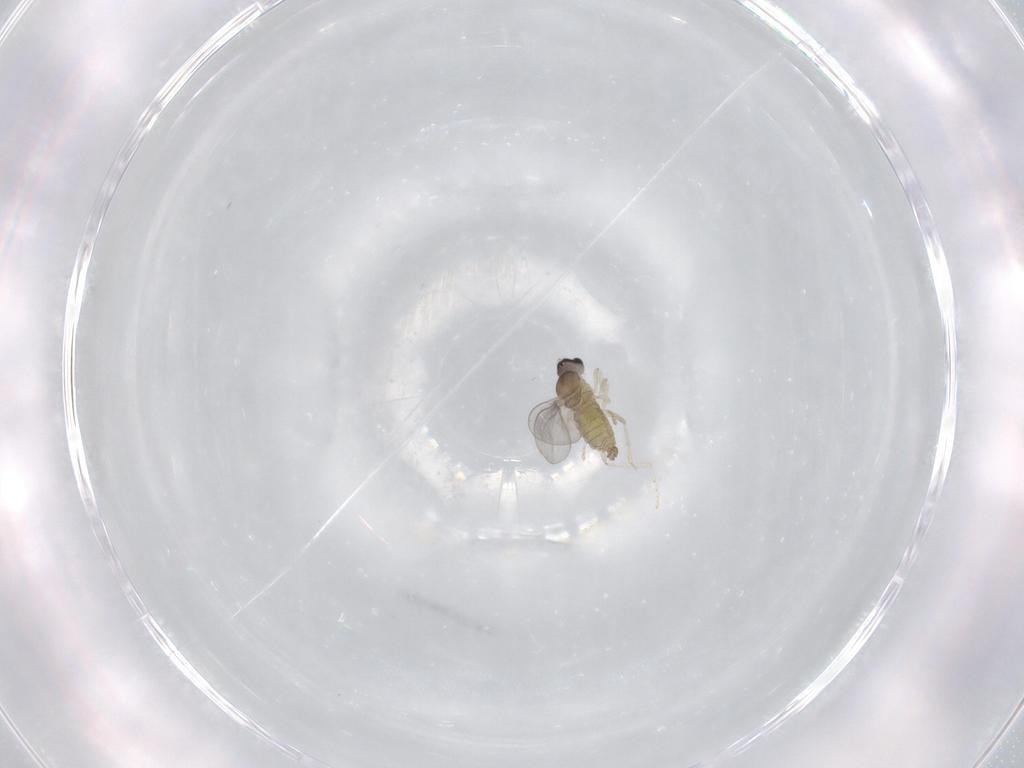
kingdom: Animalia
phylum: Arthropoda
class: Insecta
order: Diptera
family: Cecidomyiidae
